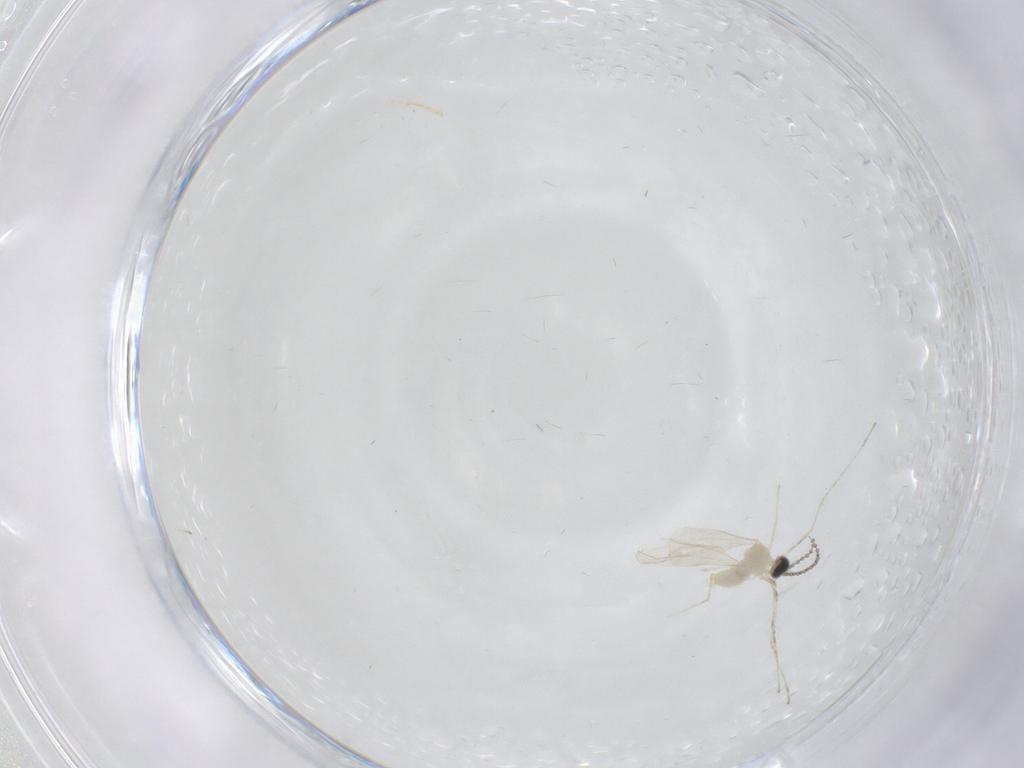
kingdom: Animalia
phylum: Arthropoda
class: Insecta
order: Diptera
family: Cecidomyiidae
